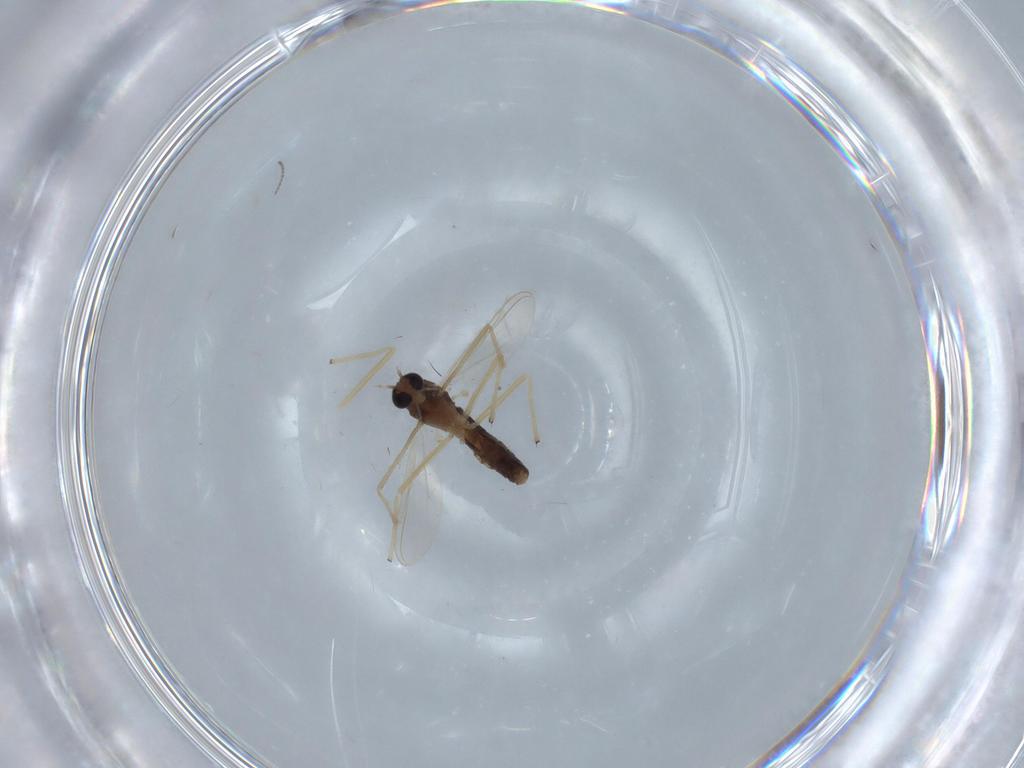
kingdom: Animalia
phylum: Arthropoda
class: Insecta
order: Diptera
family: Chironomidae
